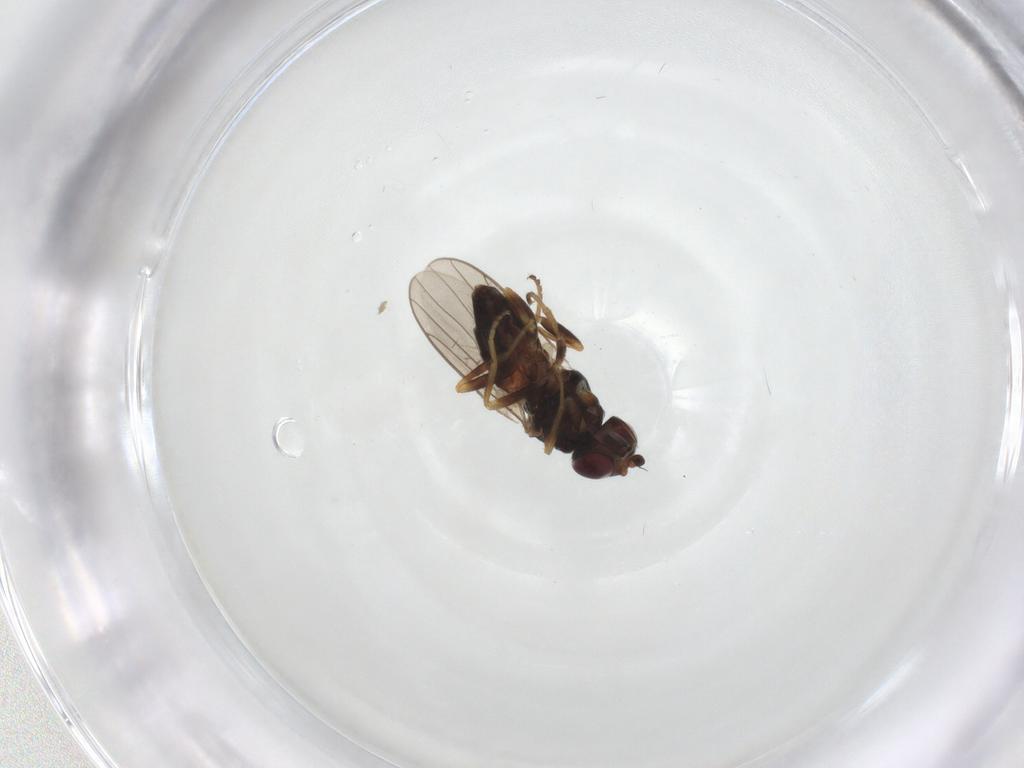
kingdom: Animalia
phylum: Arthropoda
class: Insecta
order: Diptera
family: Chloropidae
